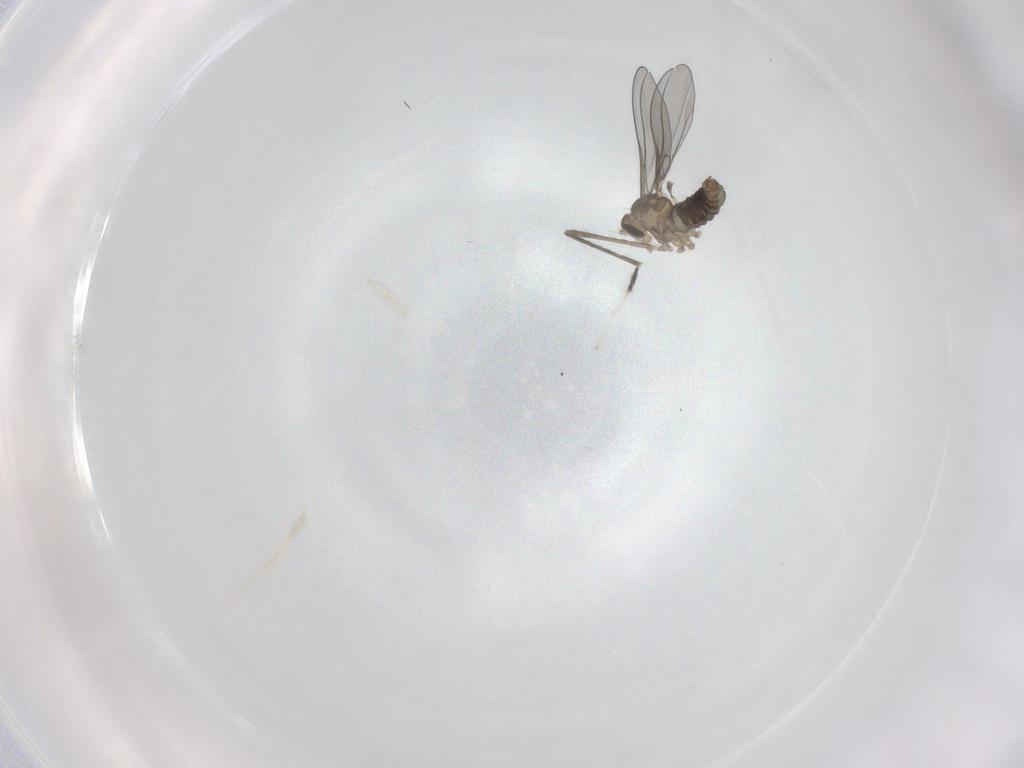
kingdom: Animalia
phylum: Arthropoda
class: Insecta
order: Diptera
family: Cecidomyiidae
